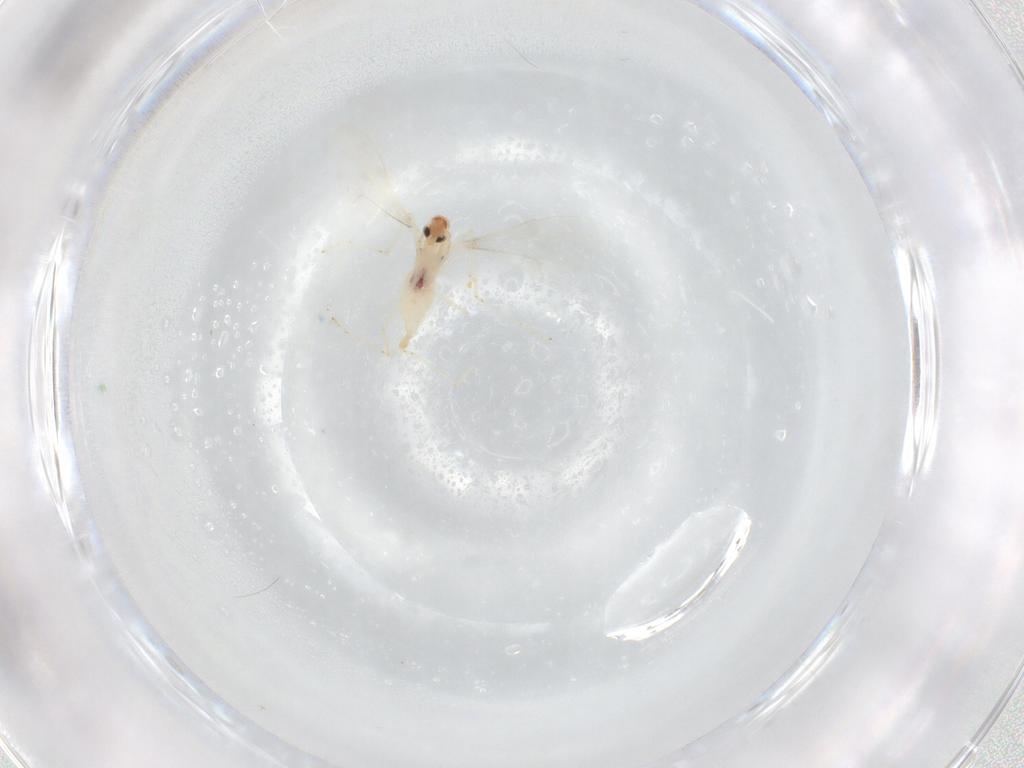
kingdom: Animalia
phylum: Arthropoda
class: Insecta
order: Diptera
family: Cecidomyiidae
